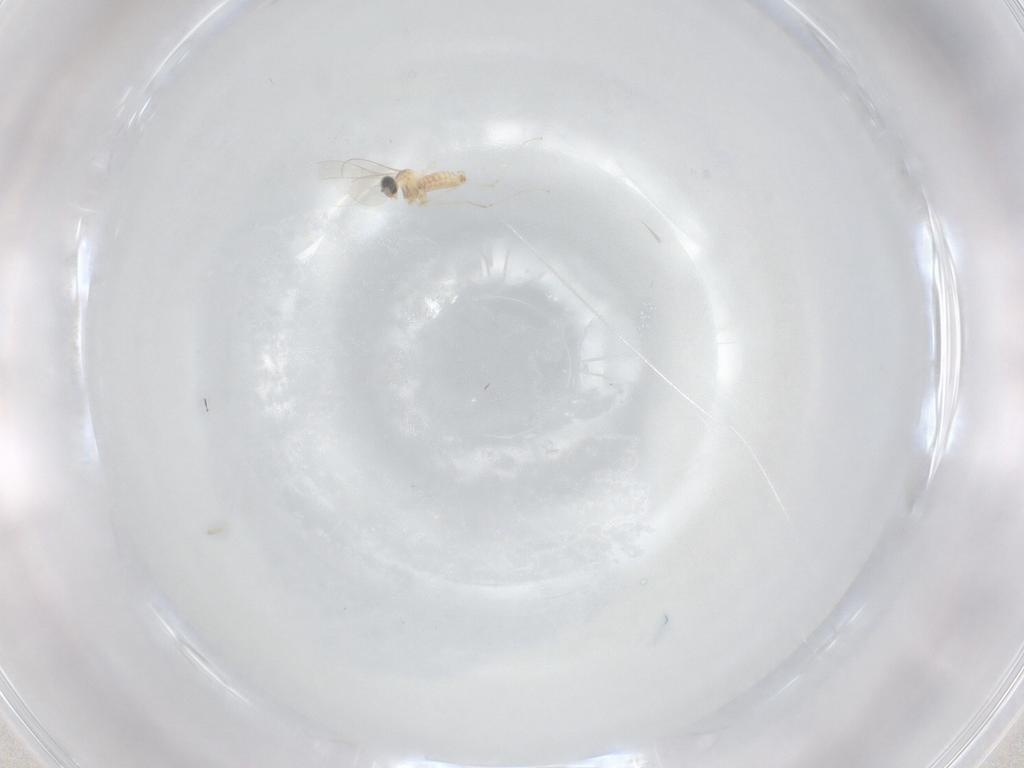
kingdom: Animalia
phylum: Arthropoda
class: Insecta
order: Diptera
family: Cecidomyiidae
